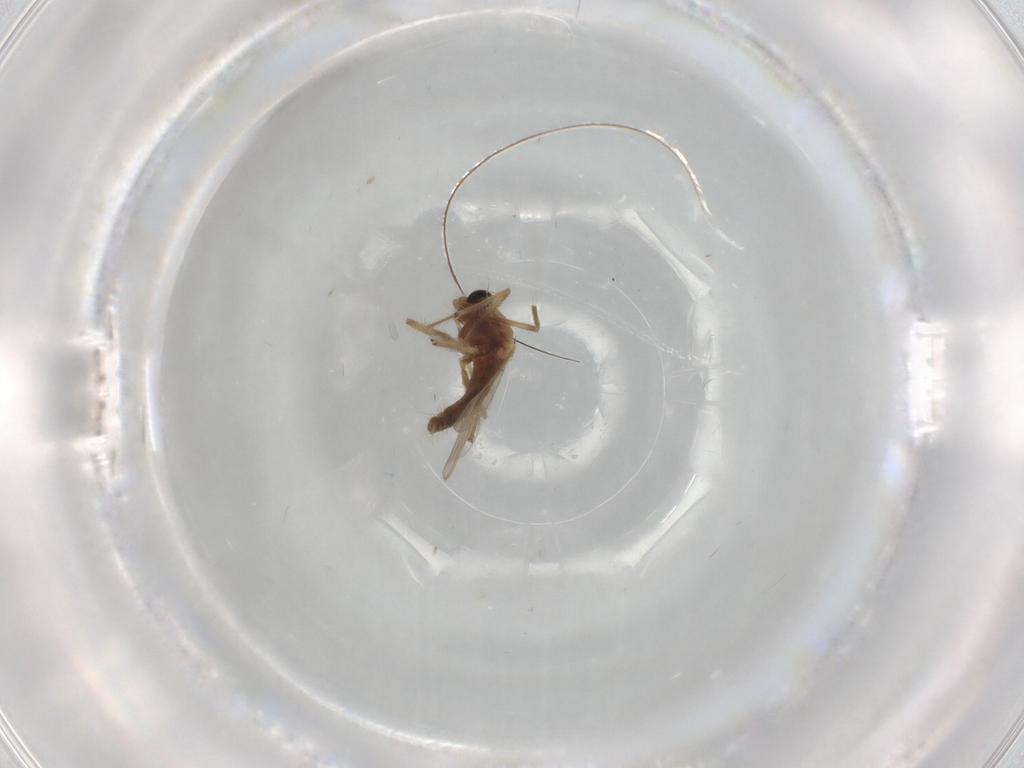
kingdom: Animalia
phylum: Arthropoda
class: Insecta
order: Diptera
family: Chironomidae
